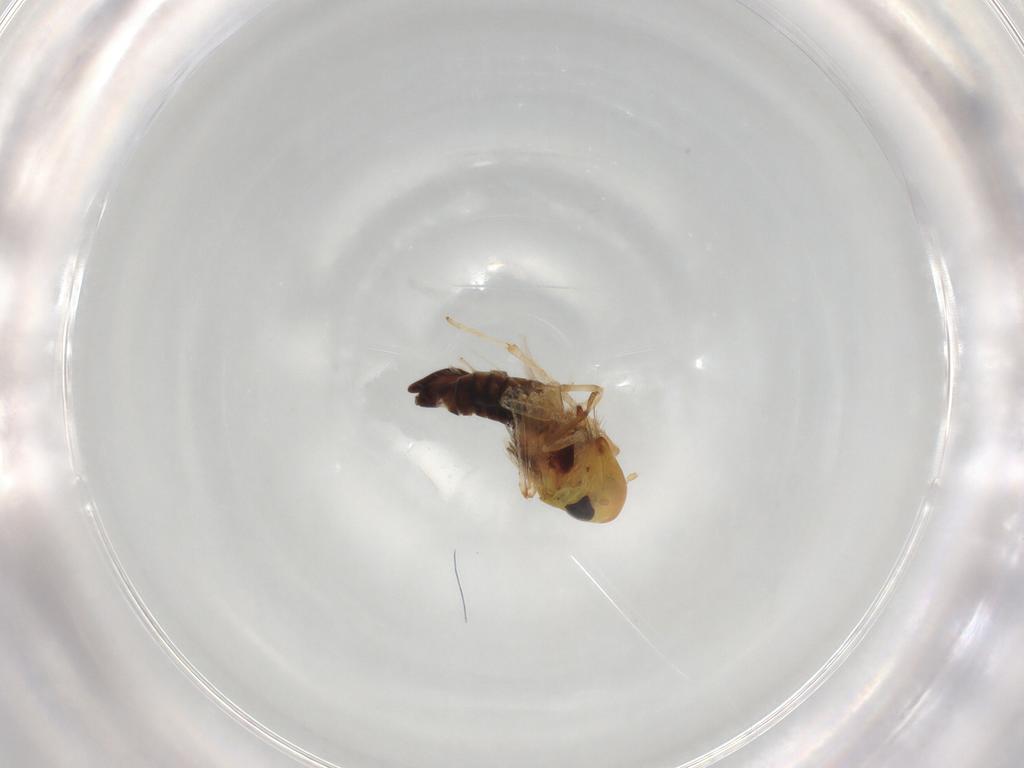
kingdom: Animalia
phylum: Arthropoda
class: Insecta
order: Hemiptera
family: Cicadellidae
